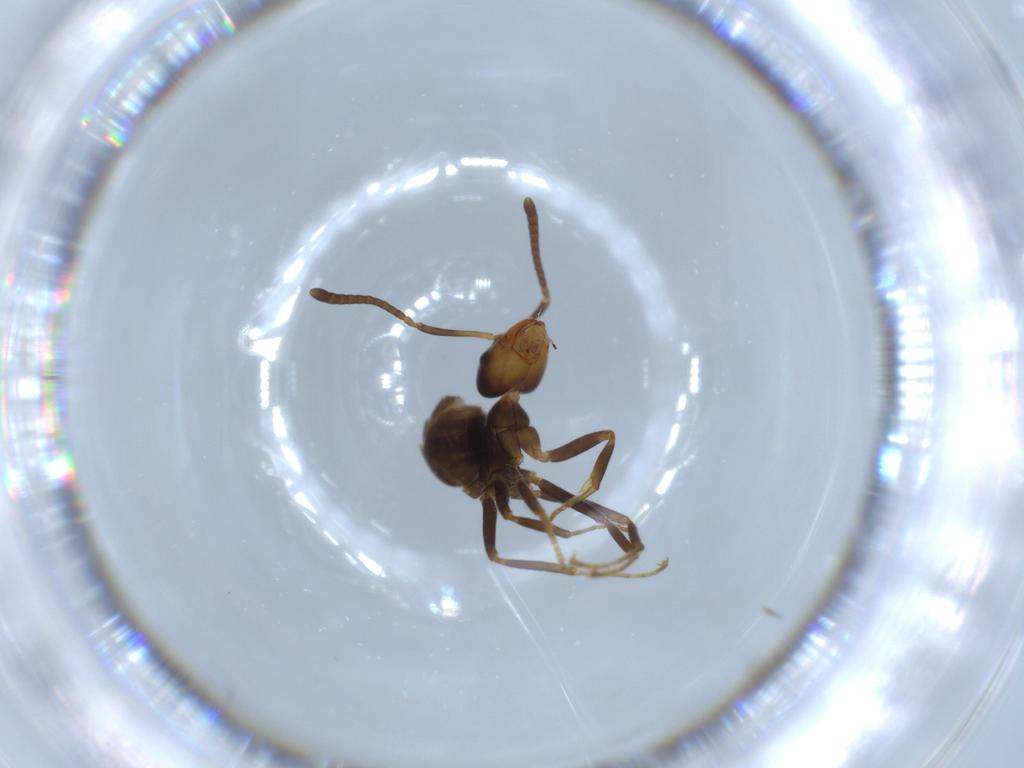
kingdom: Animalia
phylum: Arthropoda
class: Insecta
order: Hymenoptera
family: Formicidae
